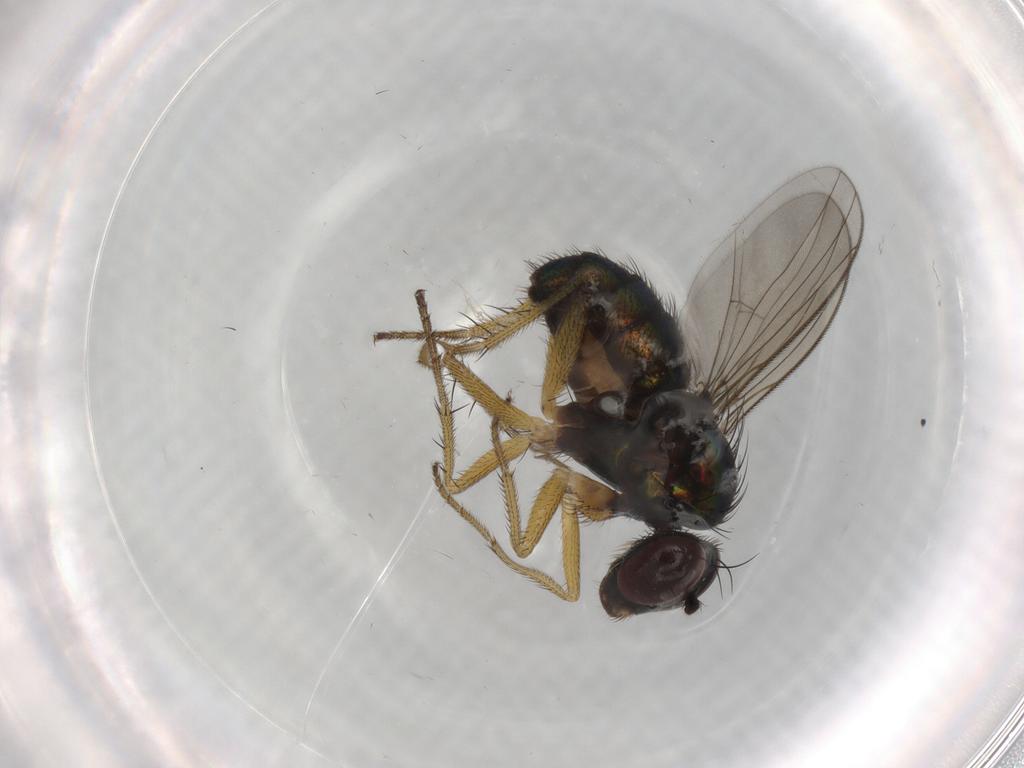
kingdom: Animalia
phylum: Arthropoda
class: Insecta
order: Diptera
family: Dolichopodidae
